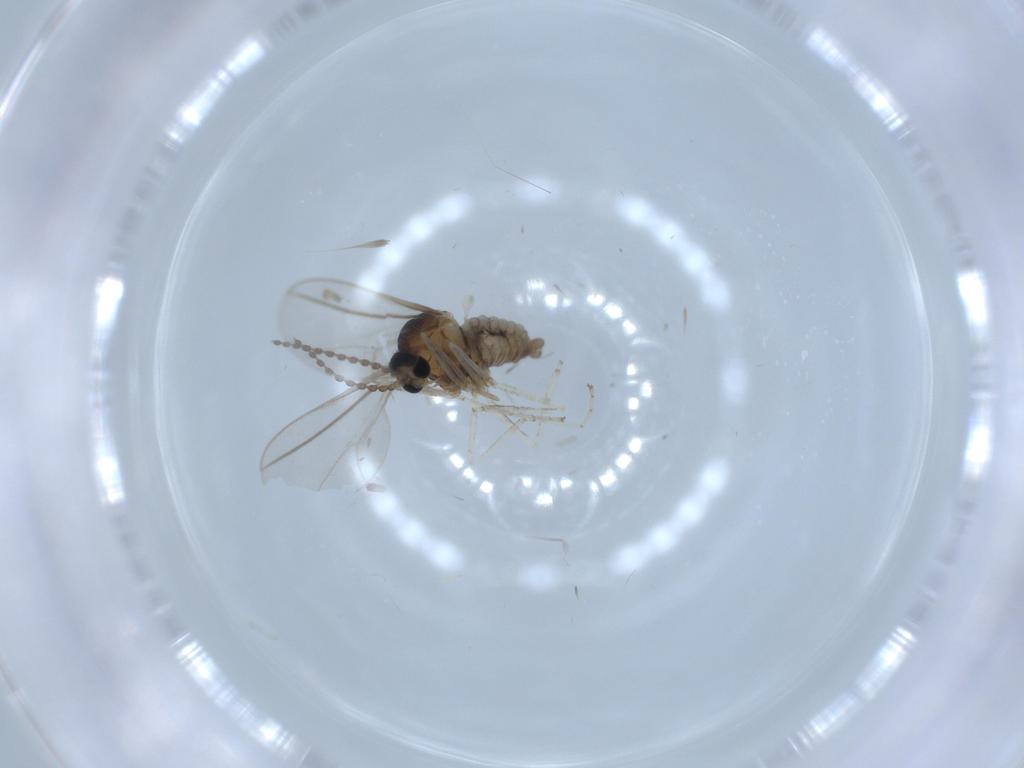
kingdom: Animalia
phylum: Arthropoda
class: Insecta
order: Diptera
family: Cecidomyiidae
